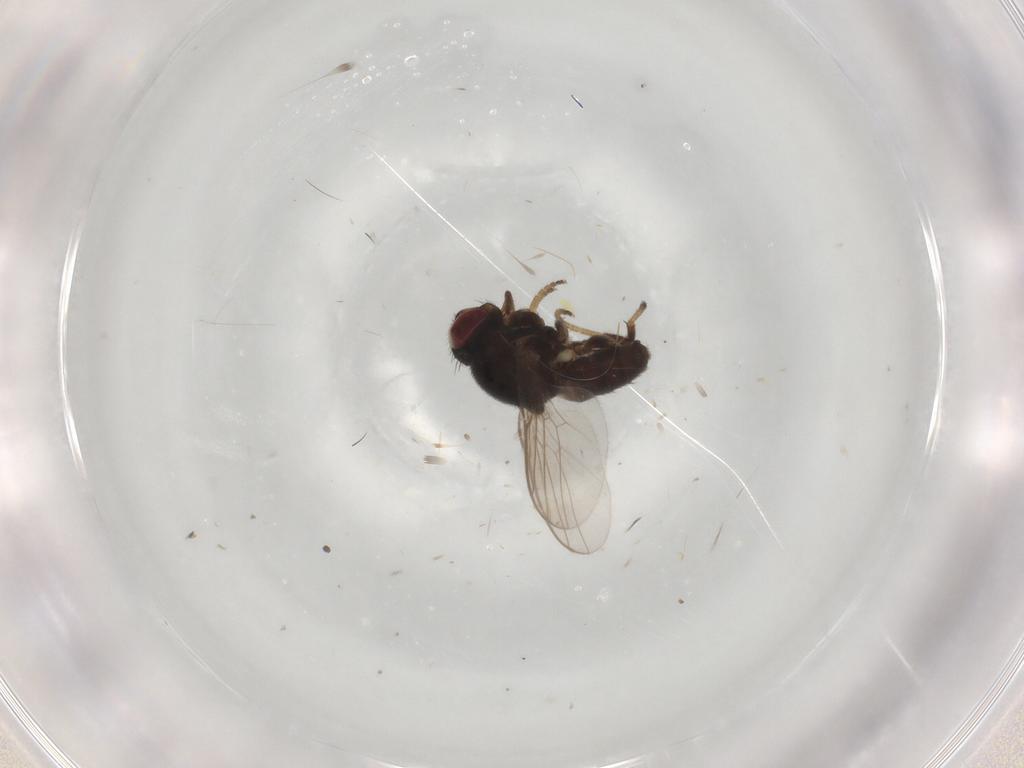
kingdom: Animalia
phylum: Arthropoda
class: Insecta
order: Diptera
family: Chloropidae
